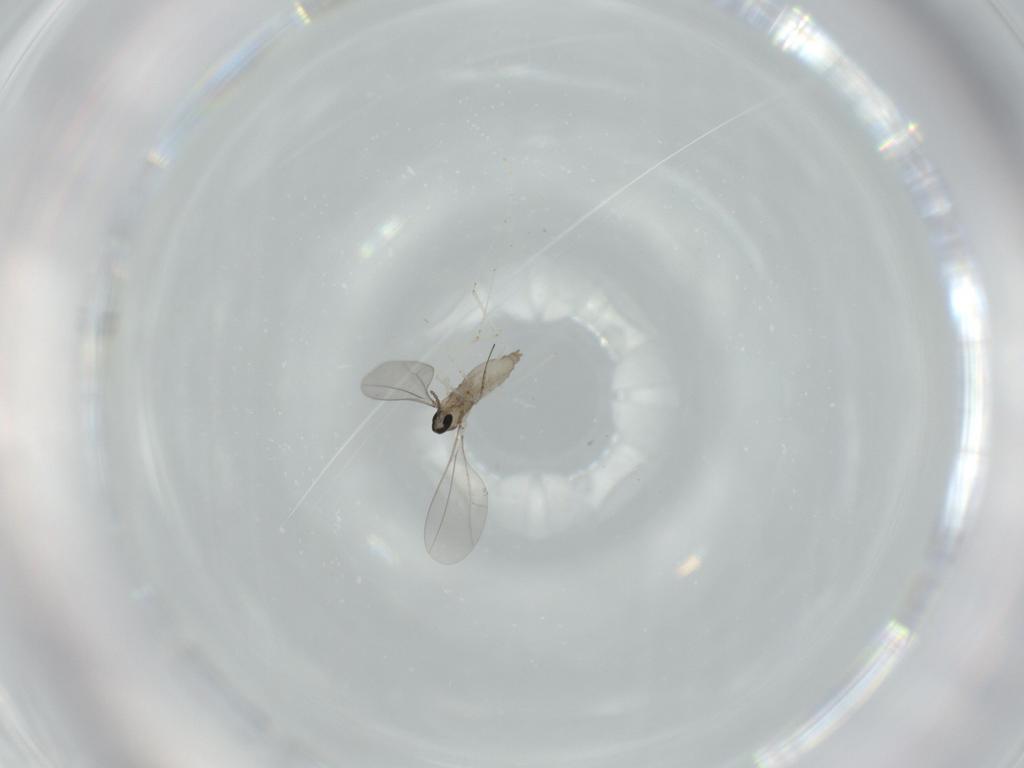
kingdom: Animalia
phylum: Arthropoda
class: Insecta
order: Diptera
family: Cecidomyiidae
